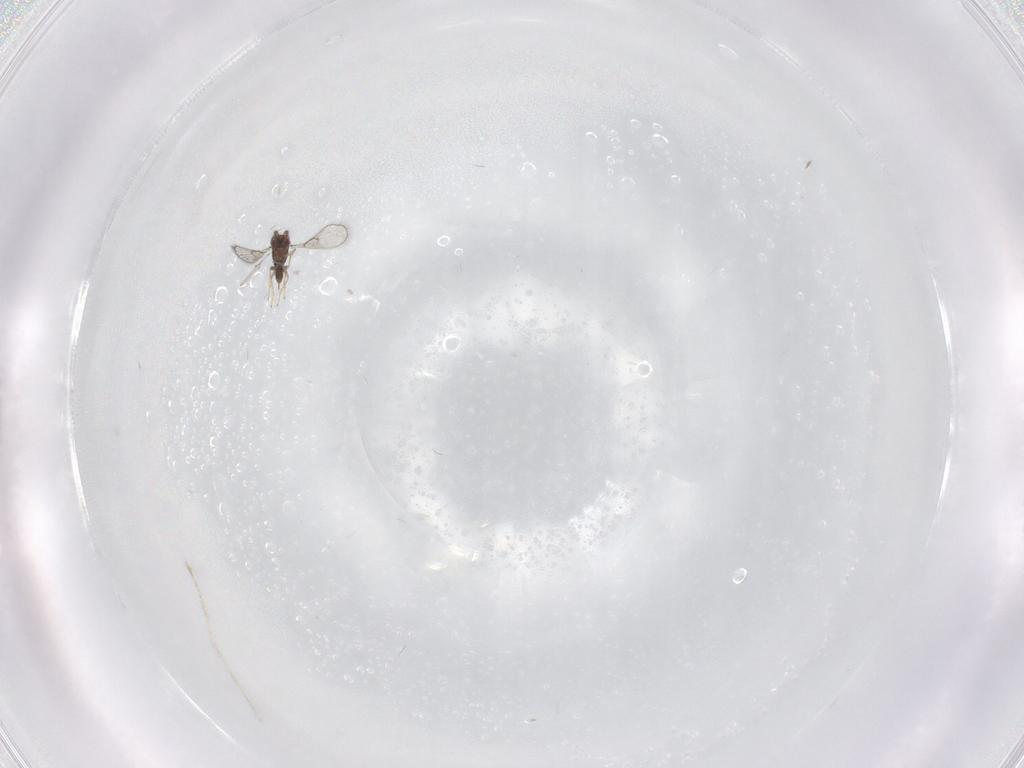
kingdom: Animalia
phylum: Arthropoda
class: Insecta
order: Hymenoptera
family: Trichogrammatidae
